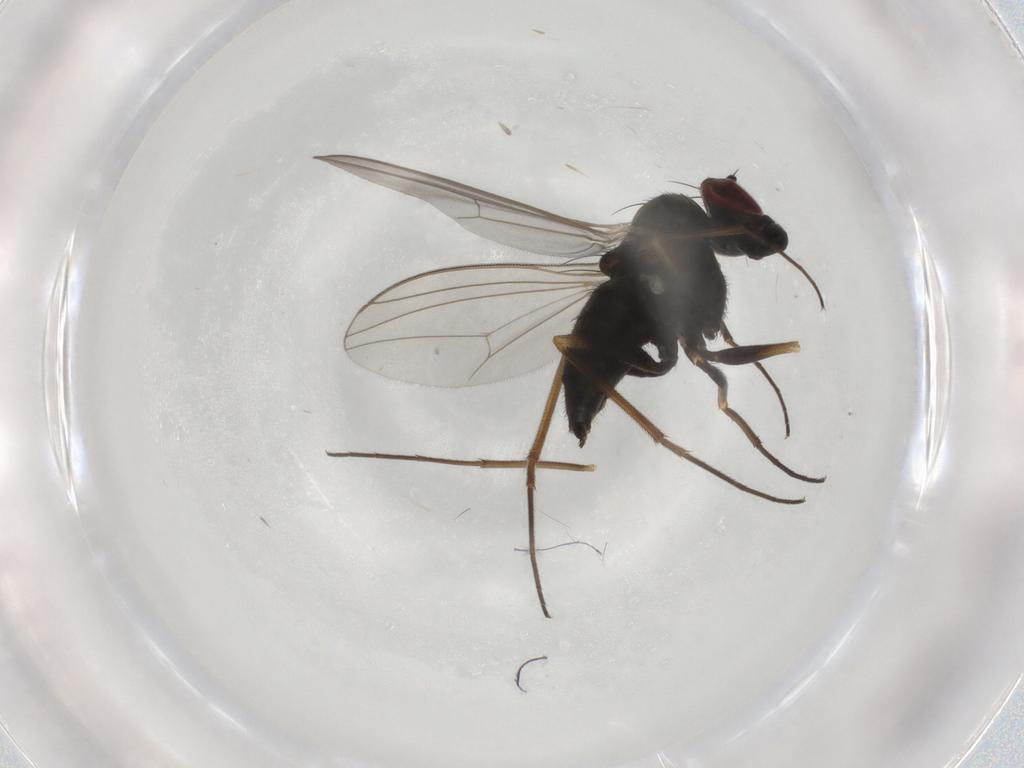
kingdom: Animalia
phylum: Arthropoda
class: Insecta
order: Diptera
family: Dolichopodidae
